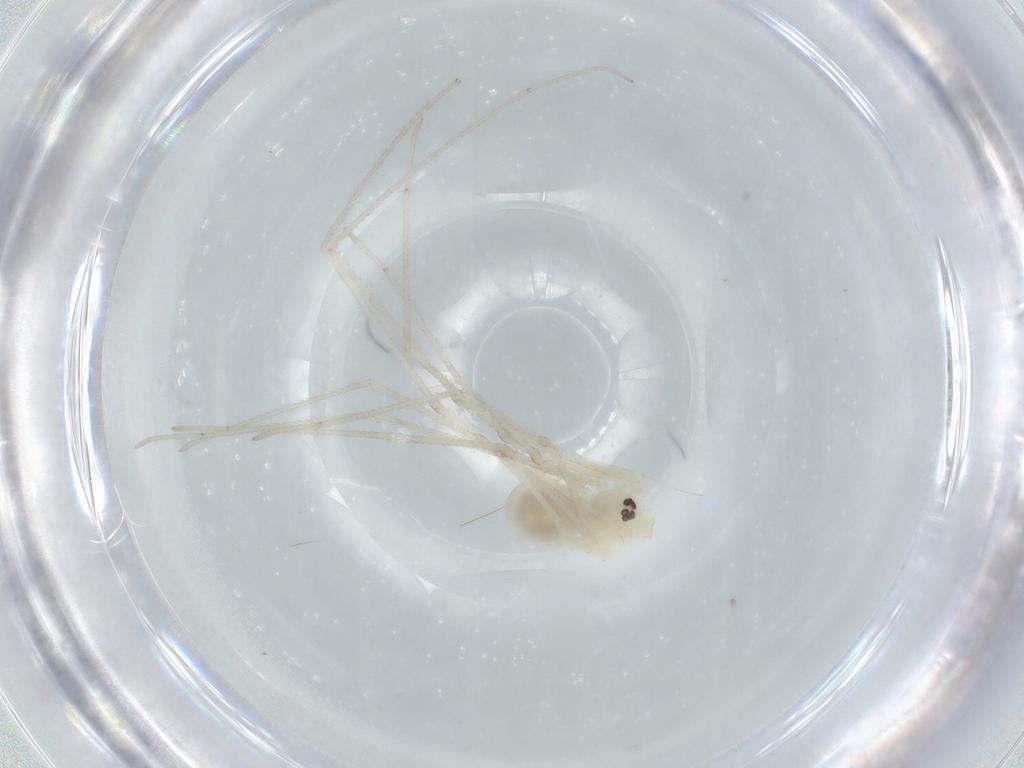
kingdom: Animalia
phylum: Arthropoda
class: Arachnida
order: Araneae
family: Pholcidae
